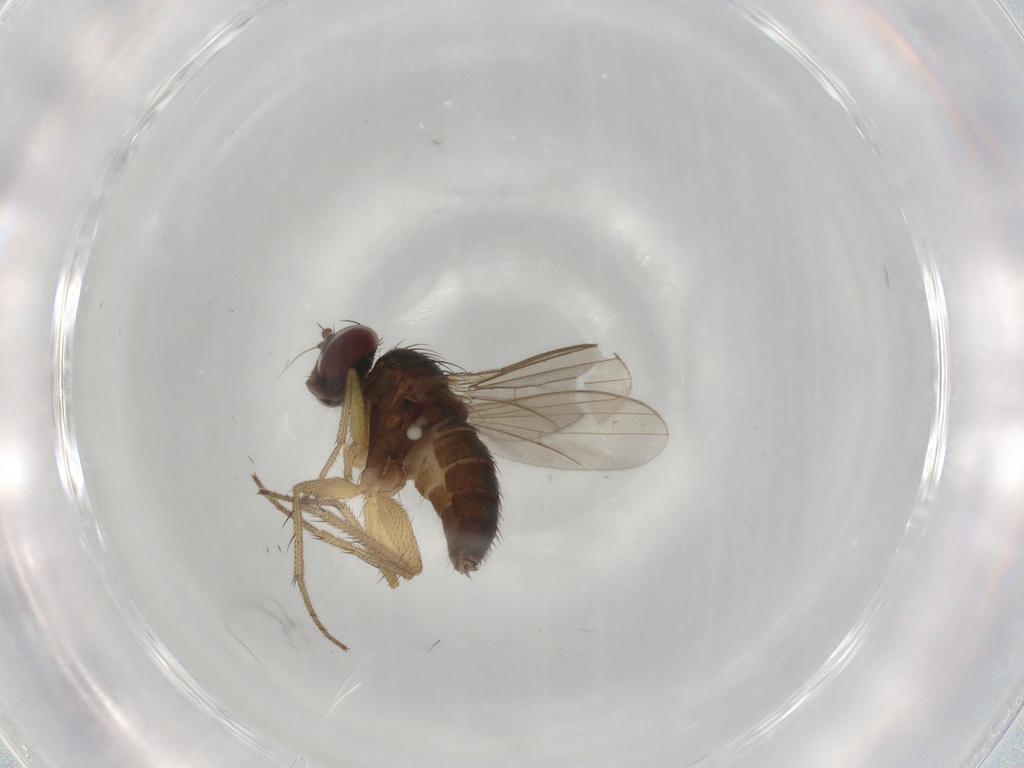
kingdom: Animalia
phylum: Arthropoda
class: Insecta
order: Diptera
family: Dolichopodidae
